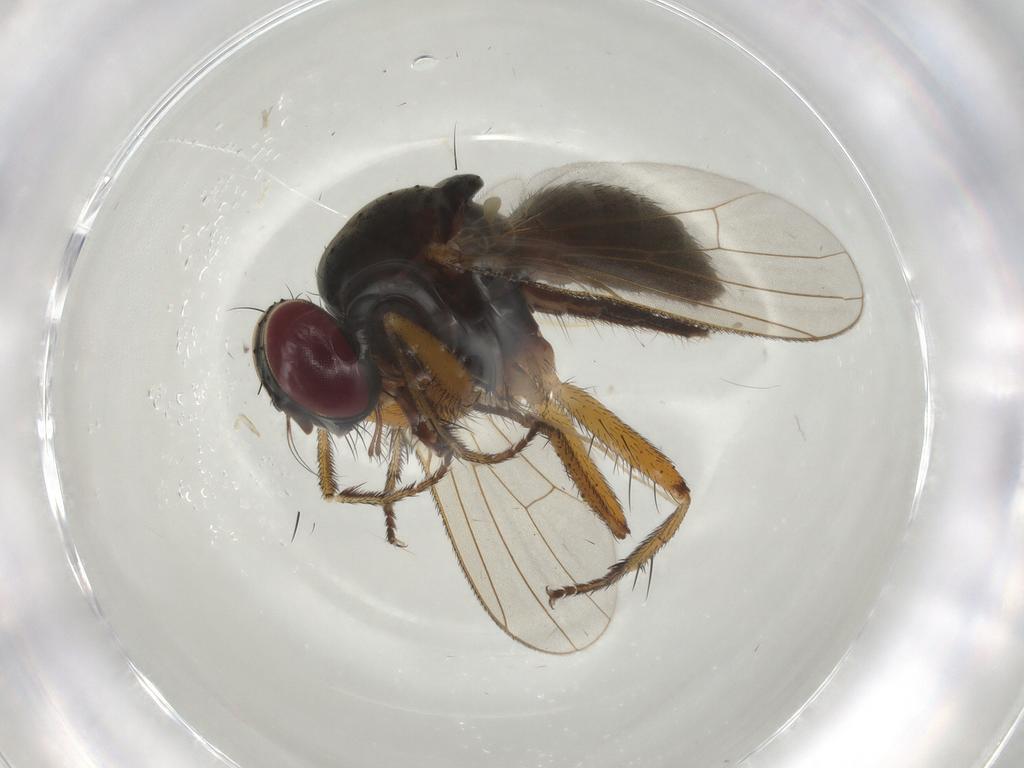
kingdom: Animalia
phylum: Arthropoda
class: Insecta
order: Diptera
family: Muscidae
